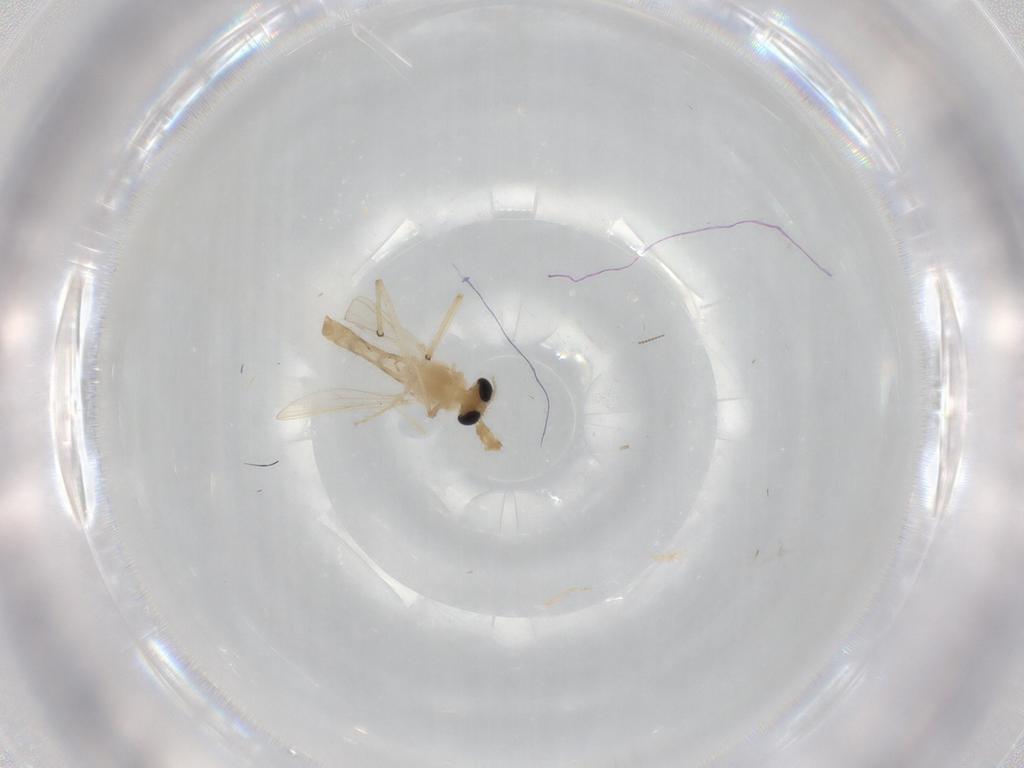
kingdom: Animalia
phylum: Arthropoda
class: Insecta
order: Diptera
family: Chironomidae
